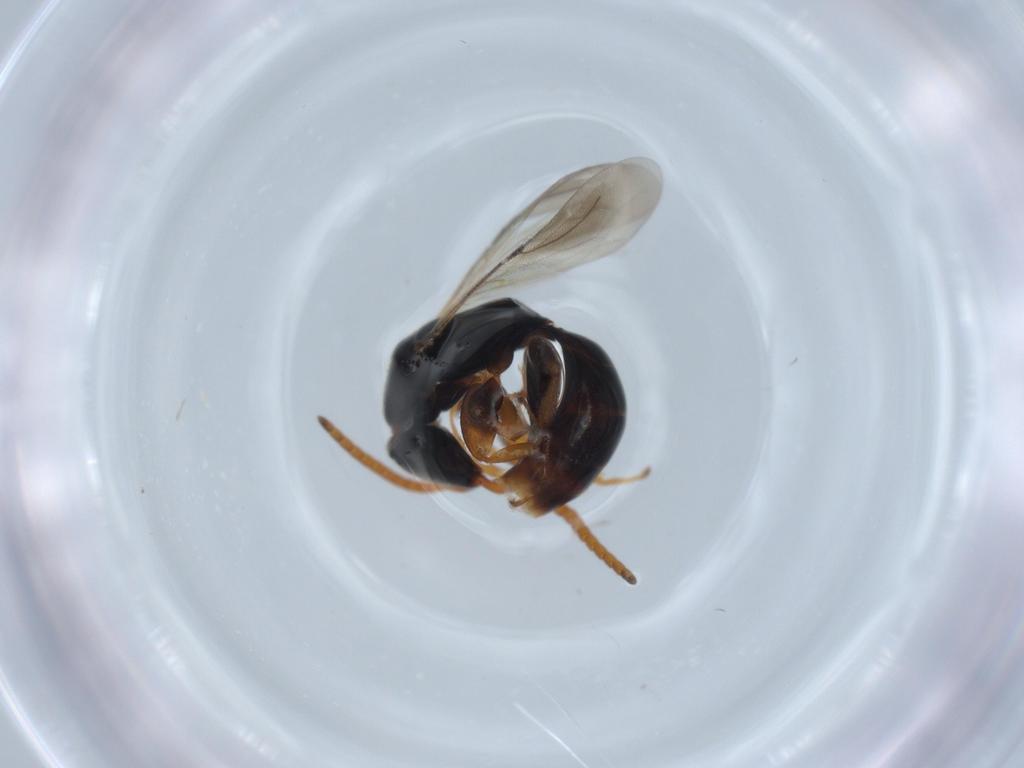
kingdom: Animalia
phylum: Arthropoda
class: Insecta
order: Hymenoptera
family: Bethylidae
